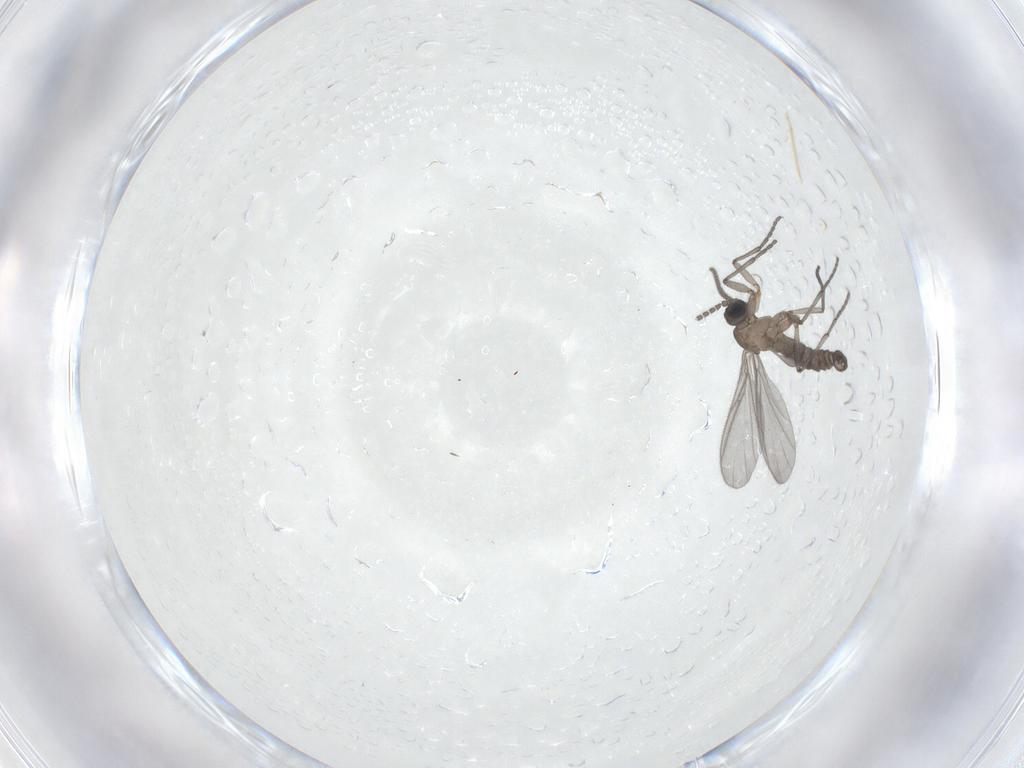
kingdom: Animalia
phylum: Arthropoda
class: Insecta
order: Diptera
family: Sciaridae
